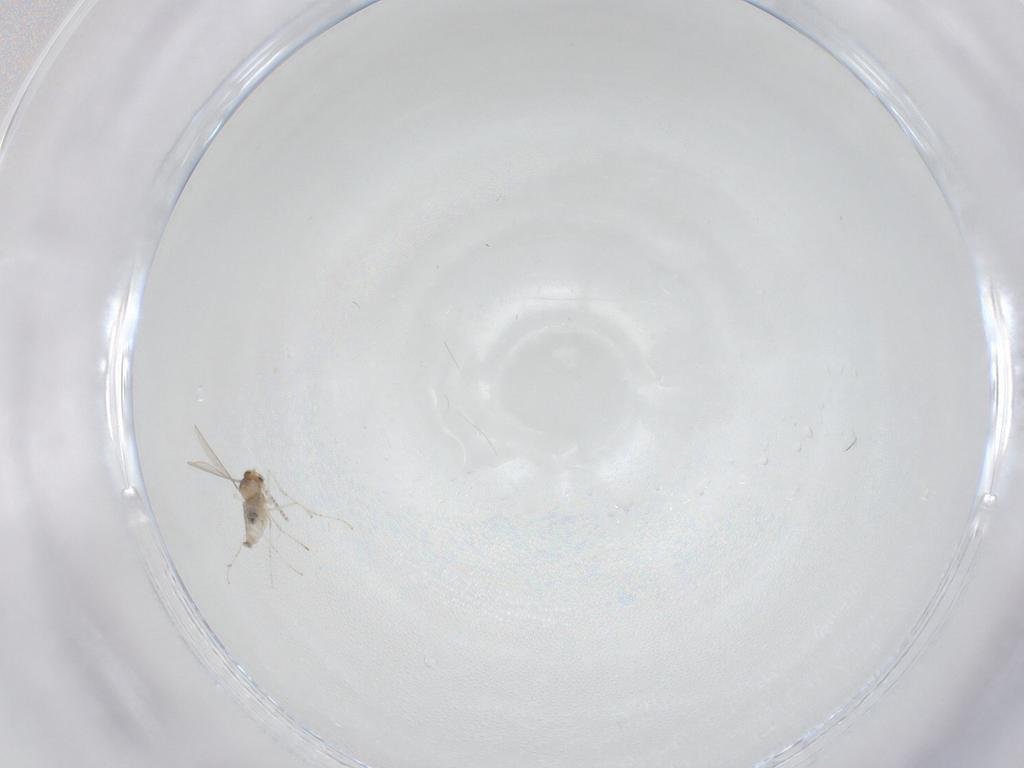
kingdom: Animalia
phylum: Arthropoda
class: Insecta
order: Diptera
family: Cecidomyiidae
